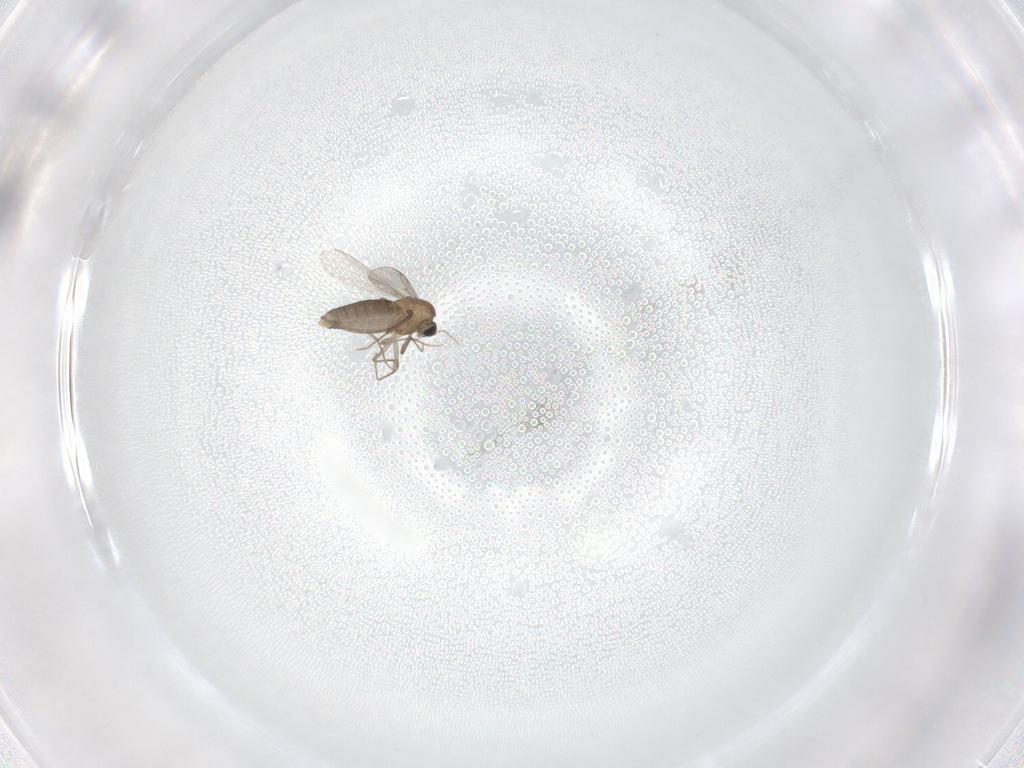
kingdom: Animalia
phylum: Arthropoda
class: Insecta
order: Diptera
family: Chironomidae
